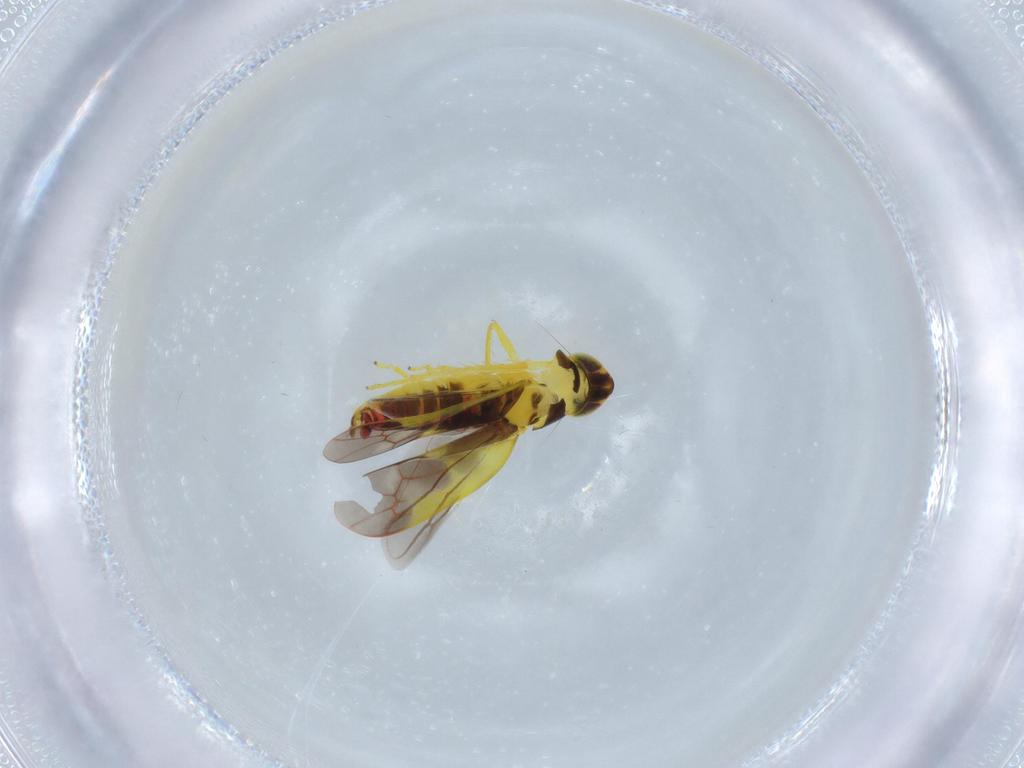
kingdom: Animalia
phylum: Arthropoda
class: Insecta
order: Hemiptera
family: Cicadellidae
